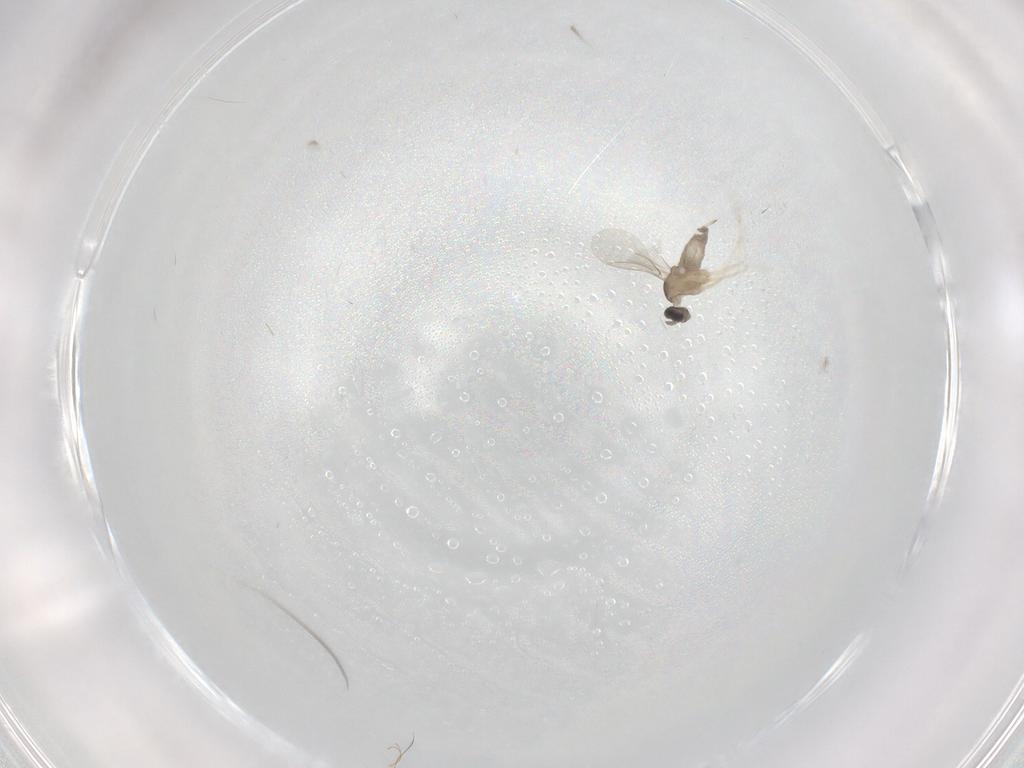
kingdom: Animalia
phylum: Arthropoda
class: Insecta
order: Diptera
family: Cecidomyiidae
